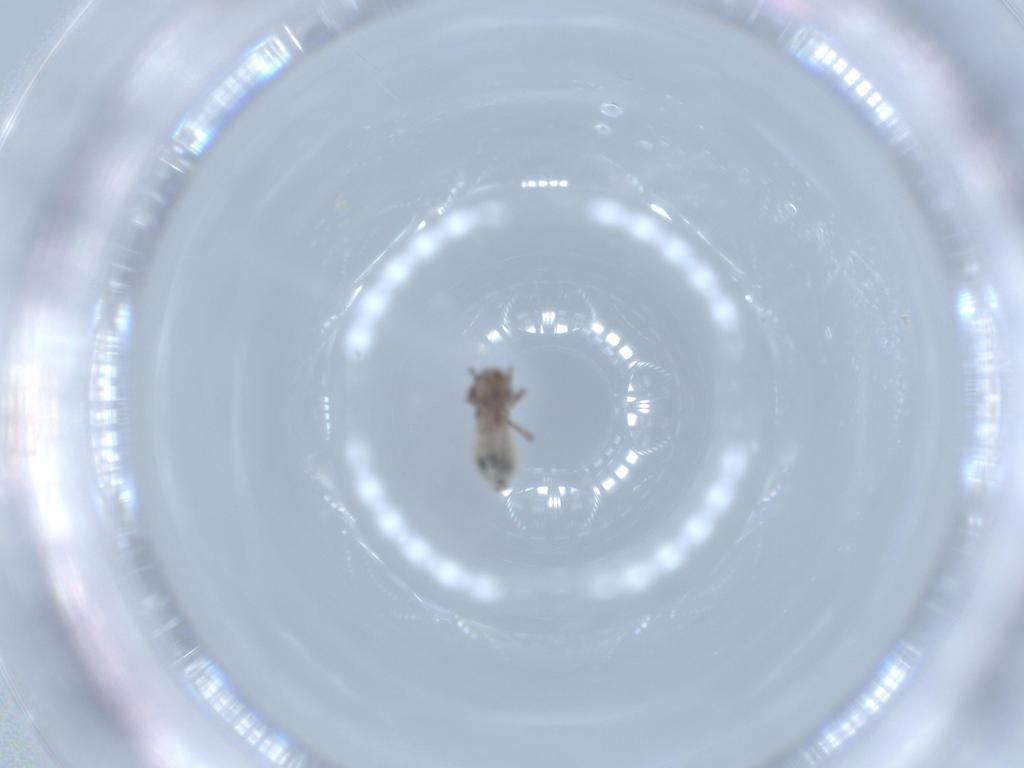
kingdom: Animalia
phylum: Arthropoda
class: Insecta
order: Psocodea
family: Lepidopsocidae
